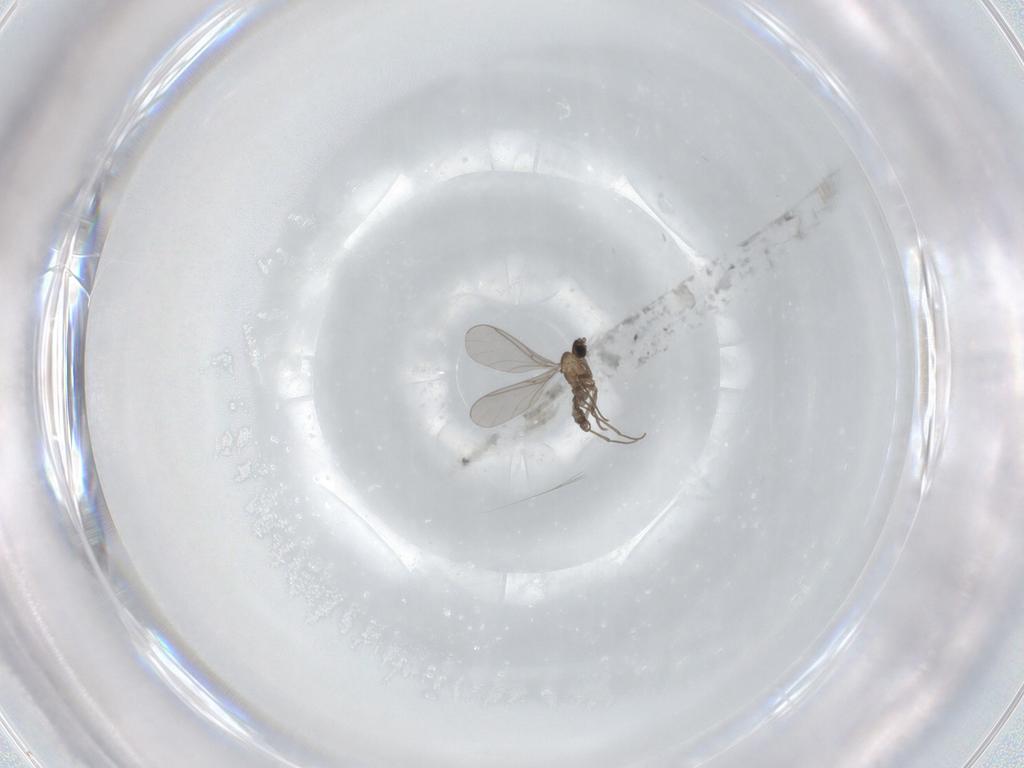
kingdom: Animalia
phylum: Arthropoda
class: Insecta
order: Diptera
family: Sciaridae
